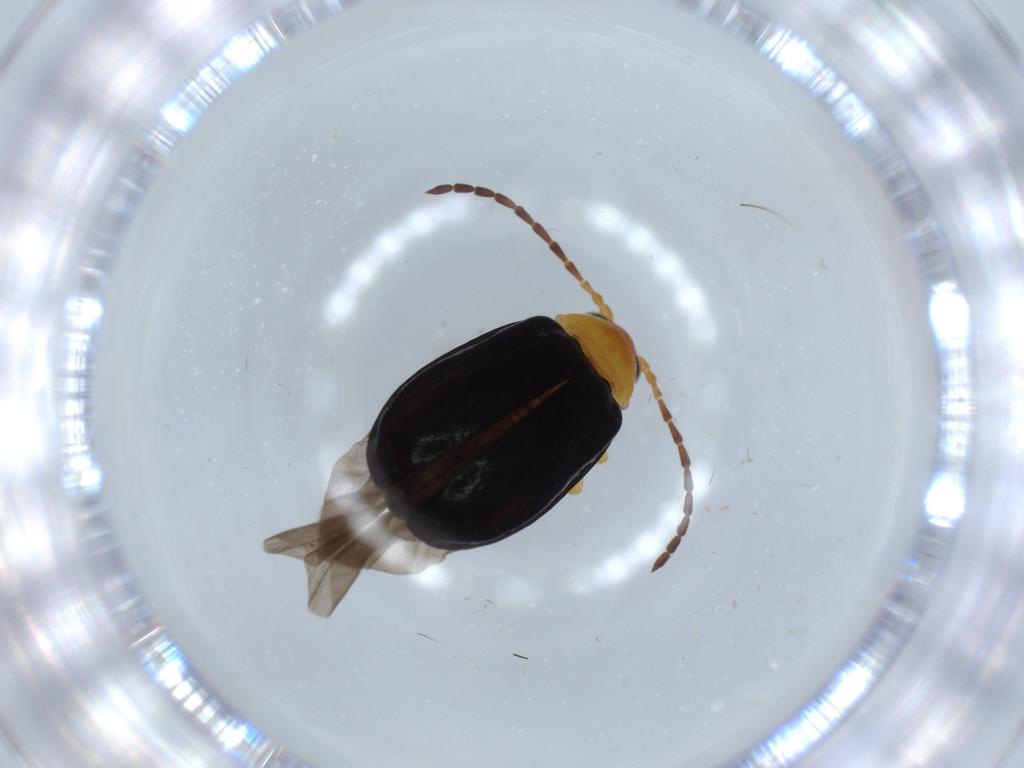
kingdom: Animalia
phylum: Arthropoda
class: Insecta
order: Coleoptera
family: Chrysomelidae
